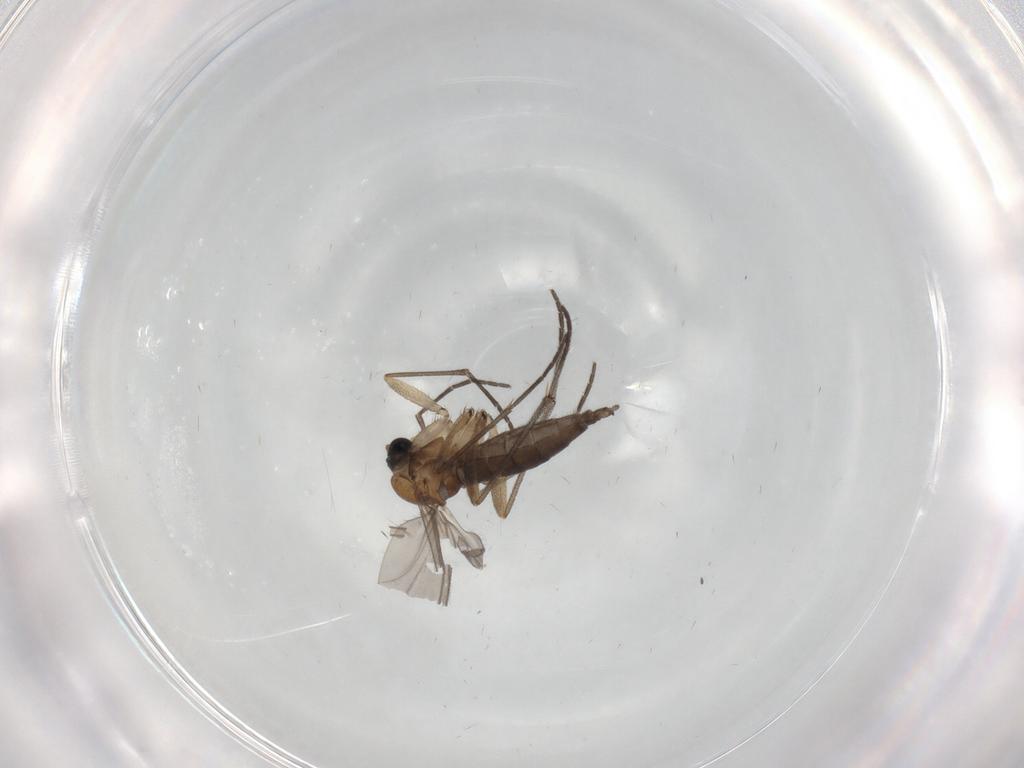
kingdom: Animalia
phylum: Arthropoda
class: Insecta
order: Diptera
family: Sciaridae
